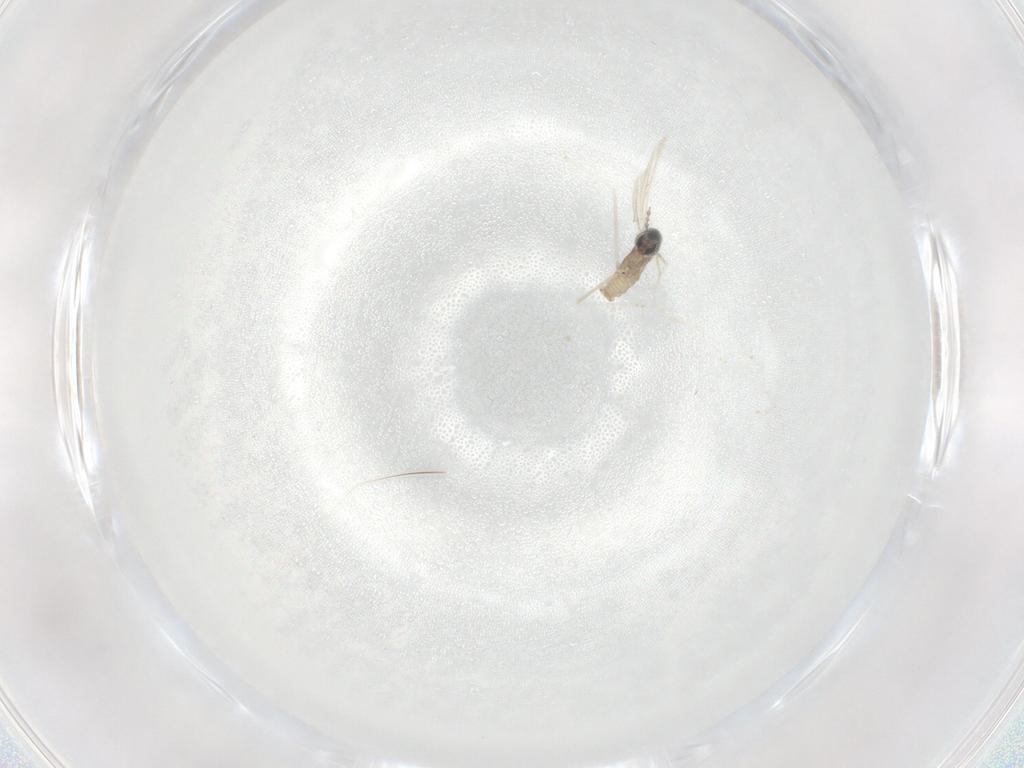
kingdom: Animalia
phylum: Arthropoda
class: Insecta
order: Diptera
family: Cecidomyiidae
